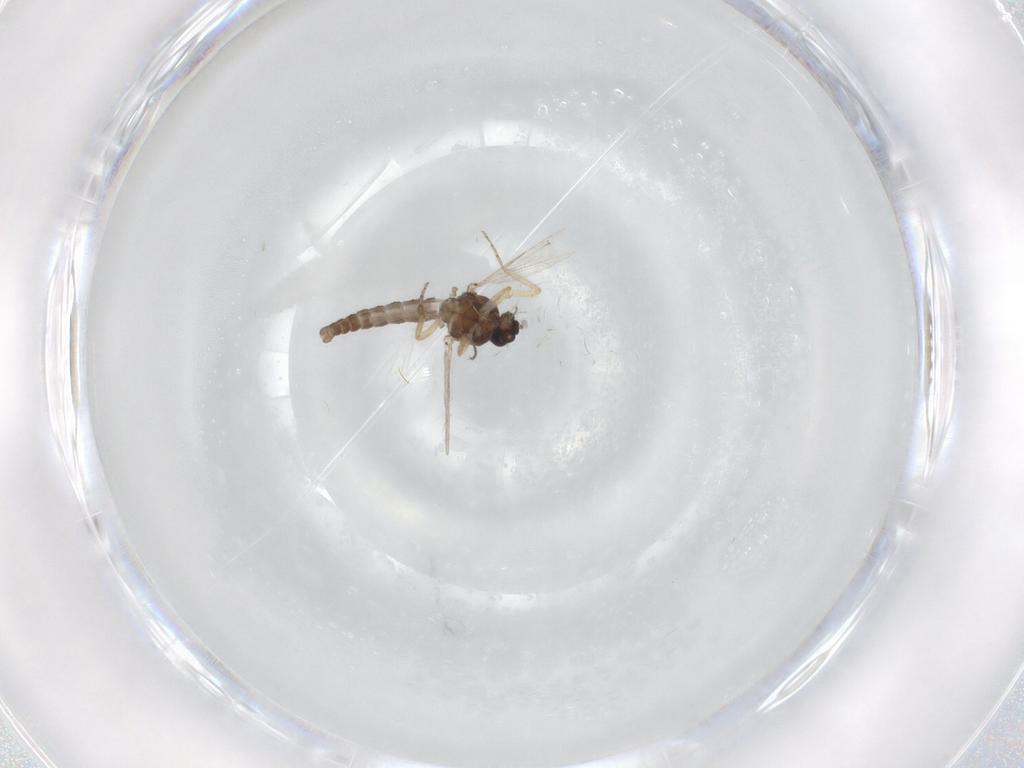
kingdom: Animalia
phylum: Arthropoda
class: Insecta
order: Diptera
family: Ceratopogonidae
